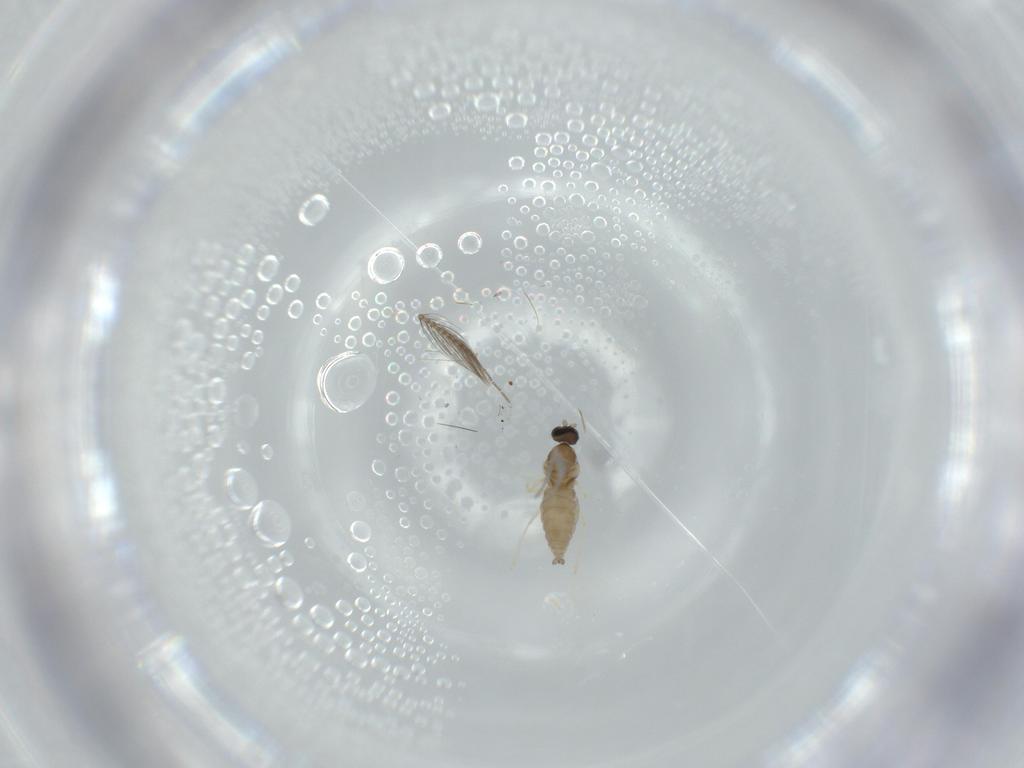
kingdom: Animalia
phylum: Arthropoda
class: Insecta
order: Diptera
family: Cecidomyiidae
